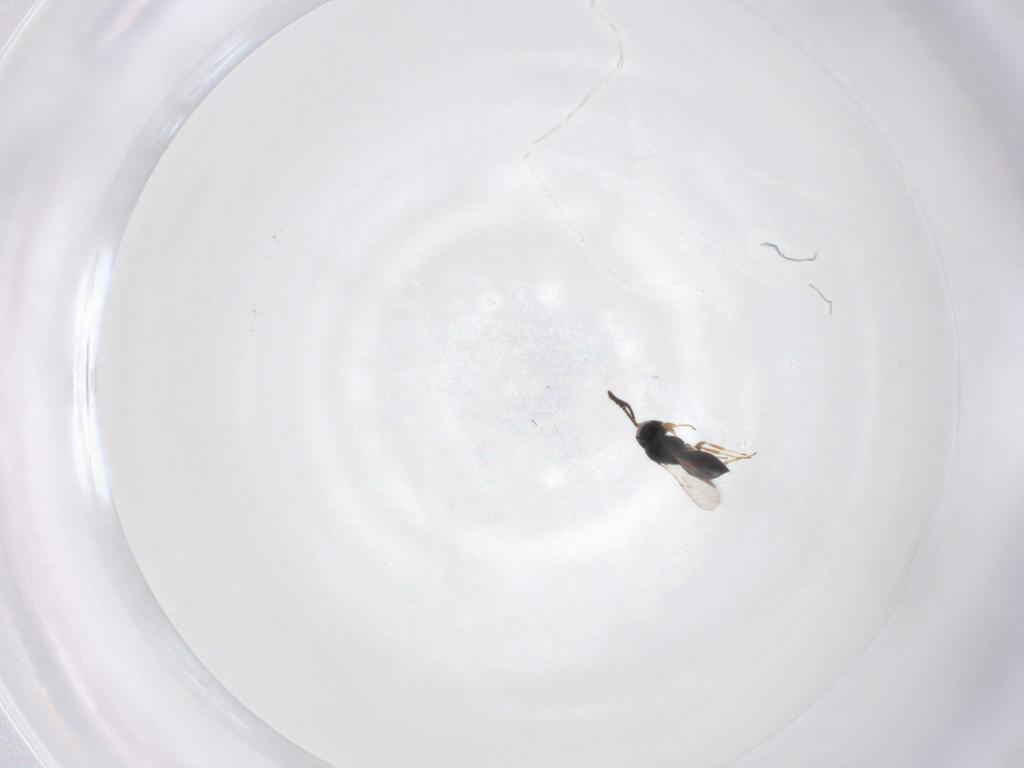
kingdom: Animalia
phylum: Arthropoda
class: Insecta
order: Hymenoptera
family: Scelionidae
